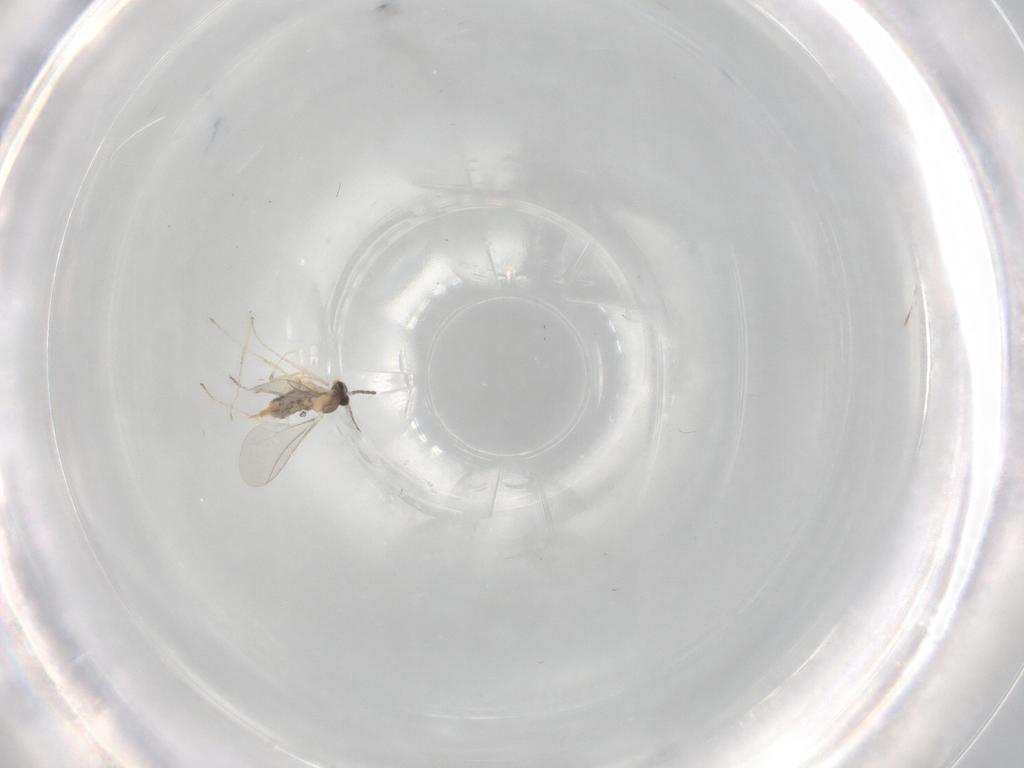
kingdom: Animalia
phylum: Arthropoda
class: Insecta
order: Diptera
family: Cecidomyiidae
